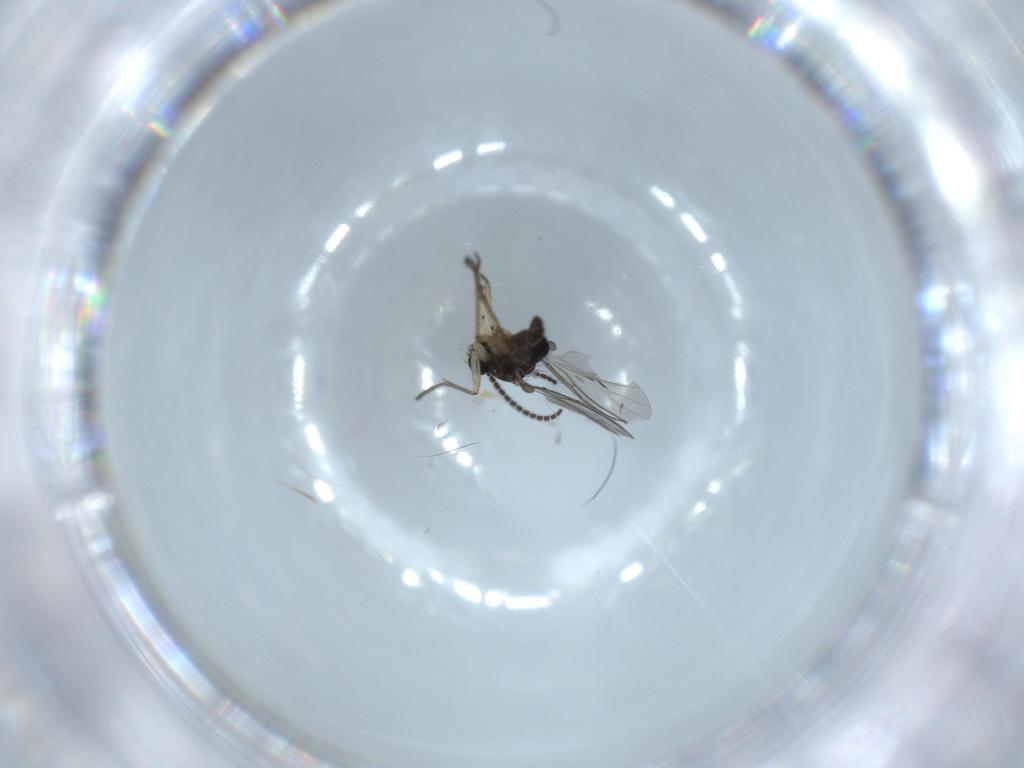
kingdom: Animalia
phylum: Arthropoda
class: Insecta
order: Diptera
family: Sciaridae
